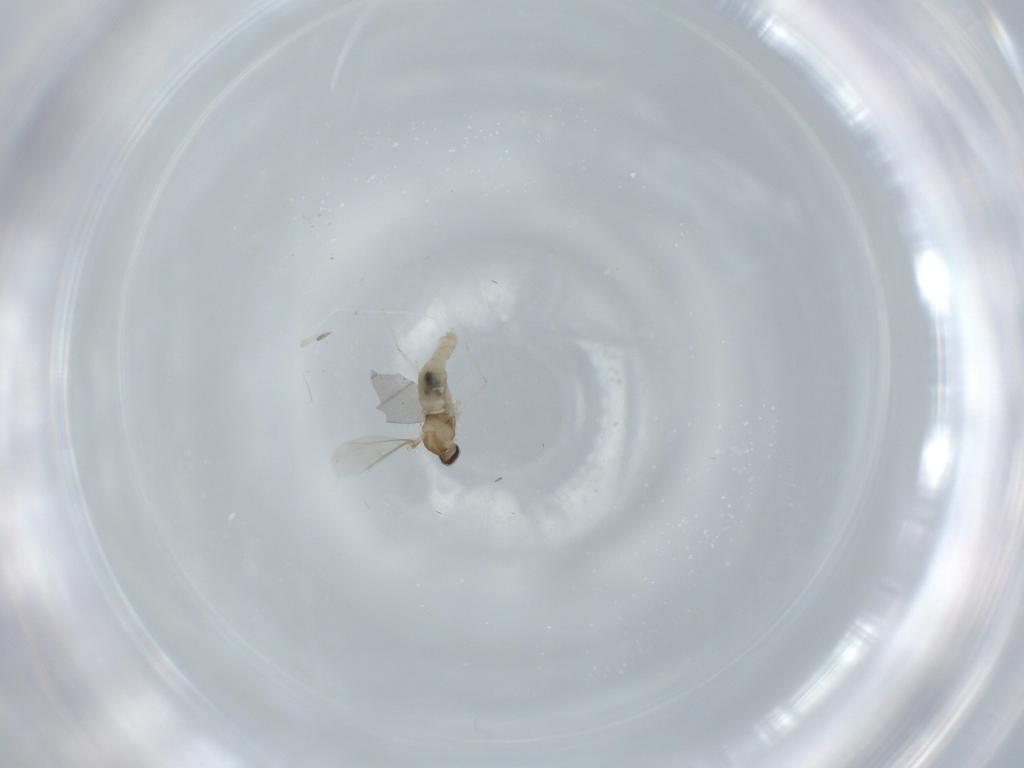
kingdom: Animalia
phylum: Arthropoda
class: Insecta
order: Diptera
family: Cecidomyiidae
